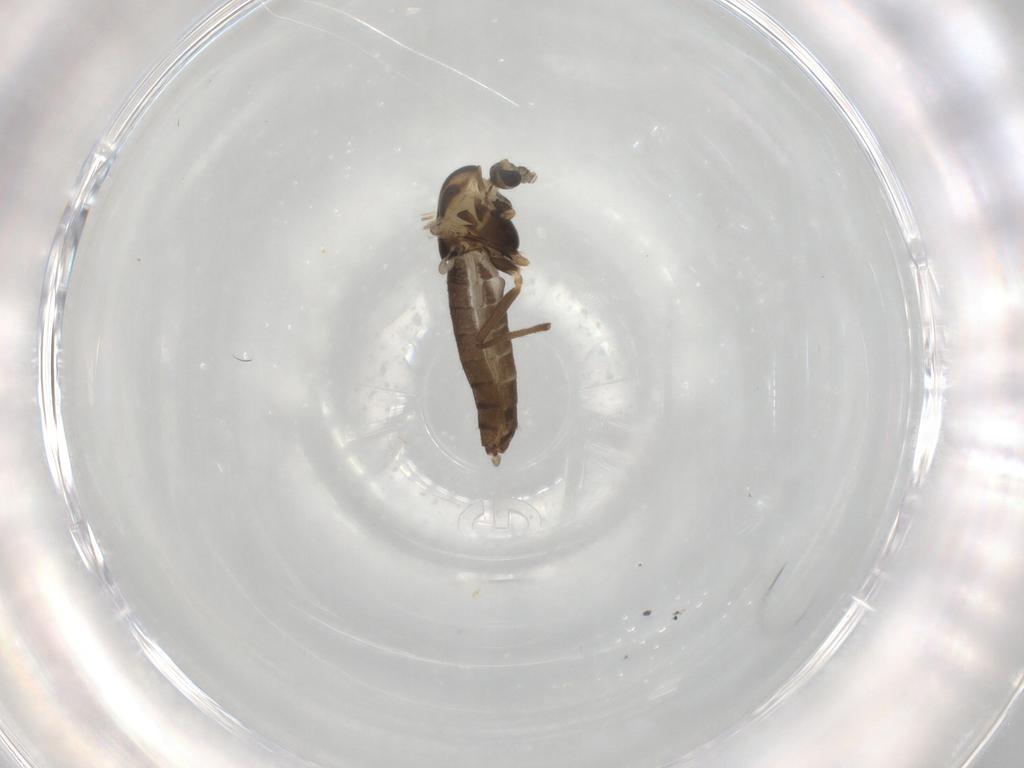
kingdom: Animalia
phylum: Arthropoda
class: Insecta
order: Diptera
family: Chironomidae
